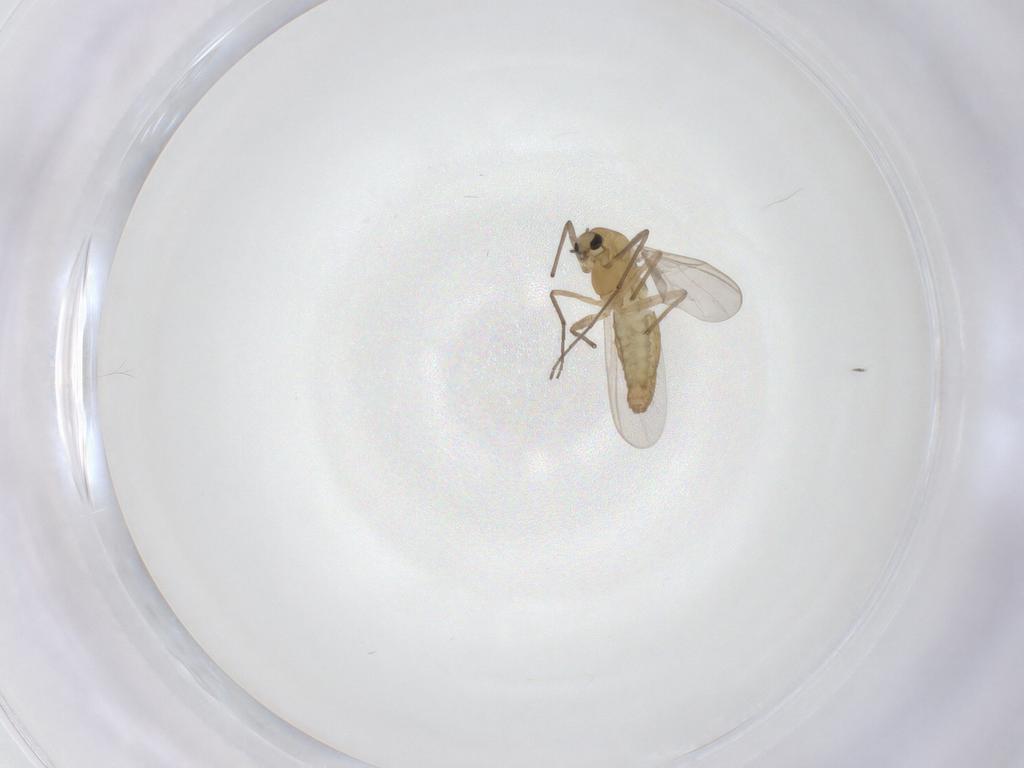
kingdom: Animalia
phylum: Arthropoda
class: Insecta
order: Diptera
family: Chironomidae
